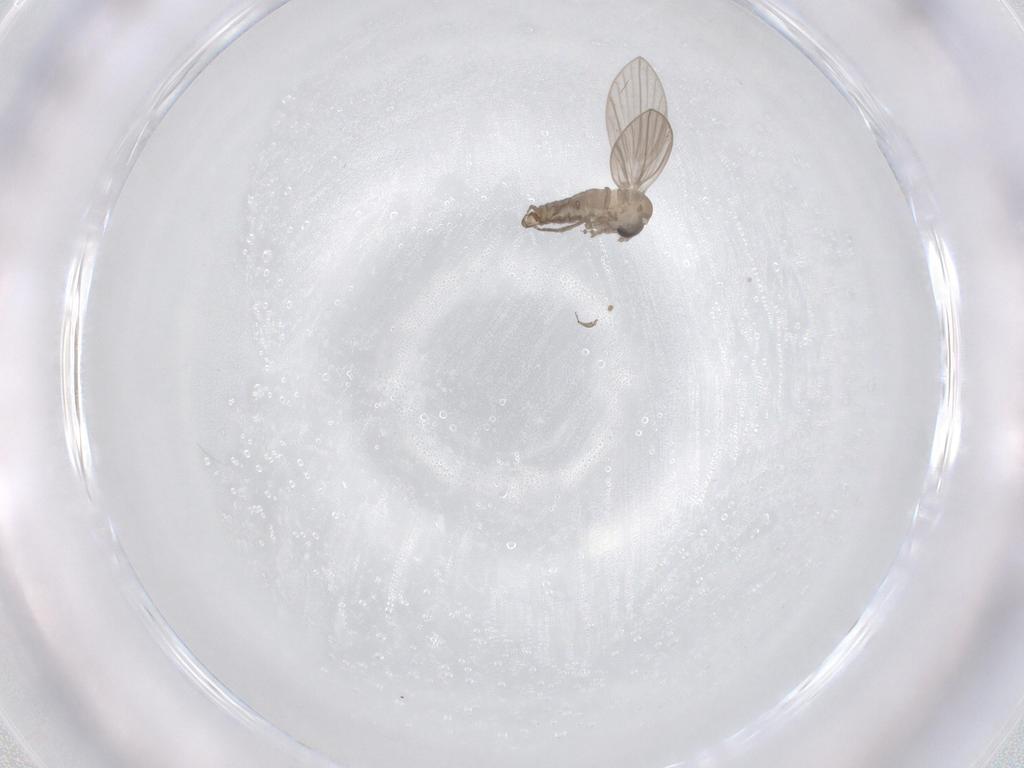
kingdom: Animalia
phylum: Arthropoda
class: Insecta
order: Diptera
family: Psychodidae
